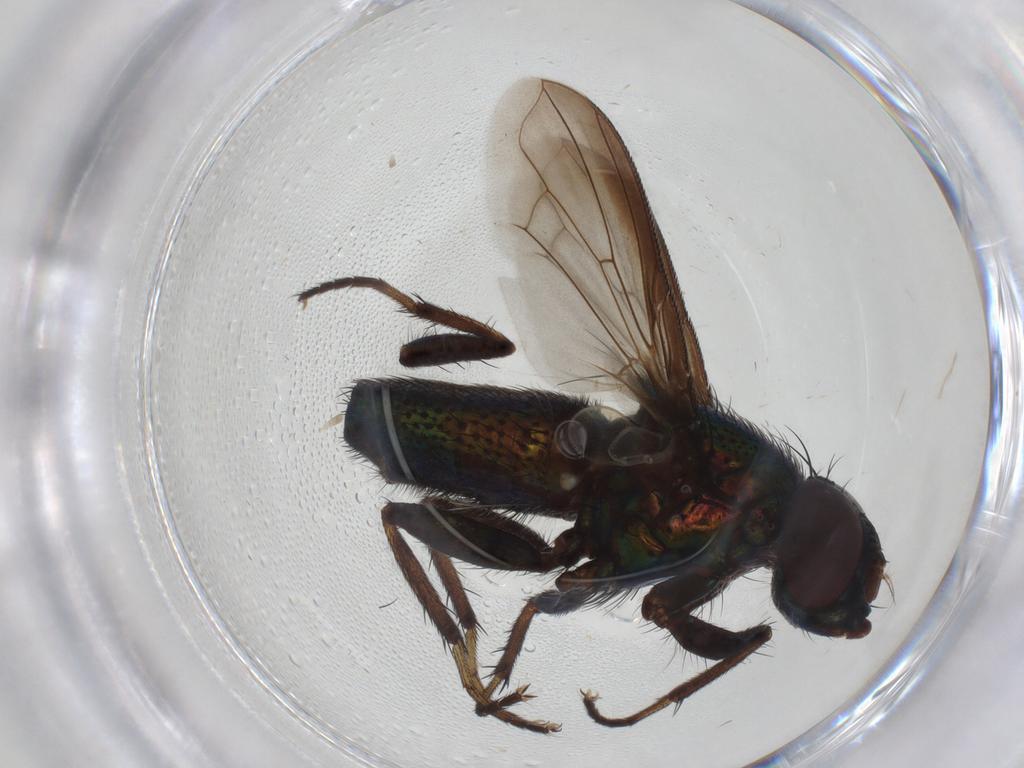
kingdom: Animalia
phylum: Arthropoda
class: Insecta
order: Diptera
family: Calliphoridae
